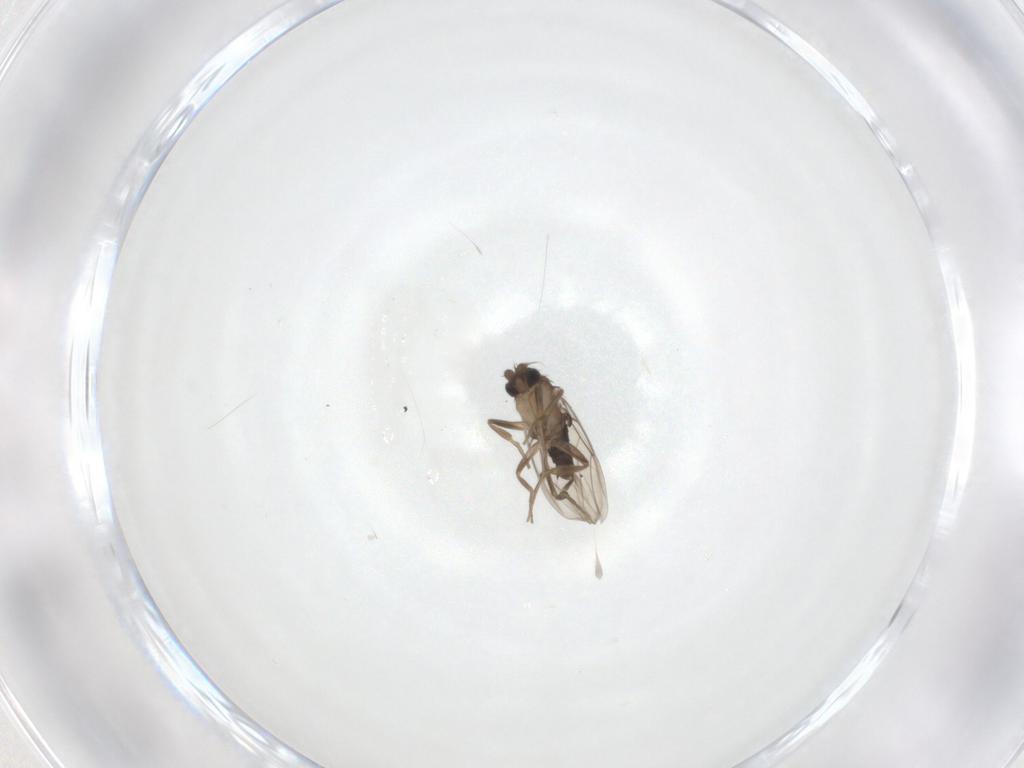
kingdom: Animalia
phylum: Arthropoda
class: Insecta
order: Diptera
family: Phoridae
